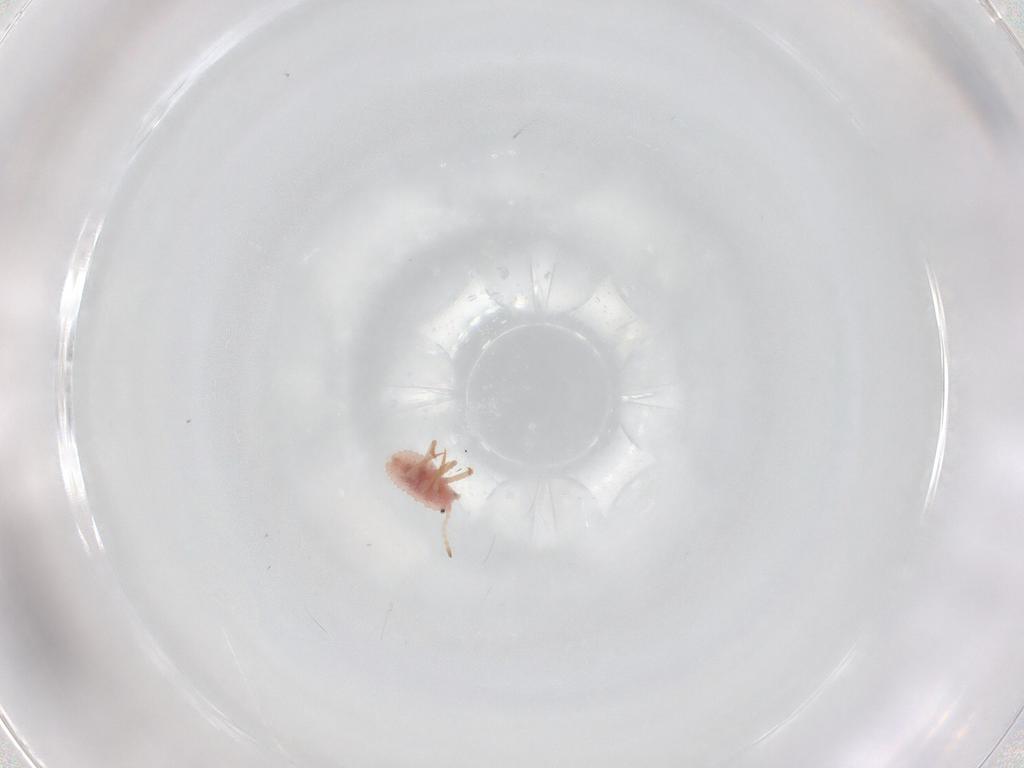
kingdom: Animalia
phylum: Arthropoda
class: Insecta
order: Hemiptera
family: Coccoidea_incertae_sedis
